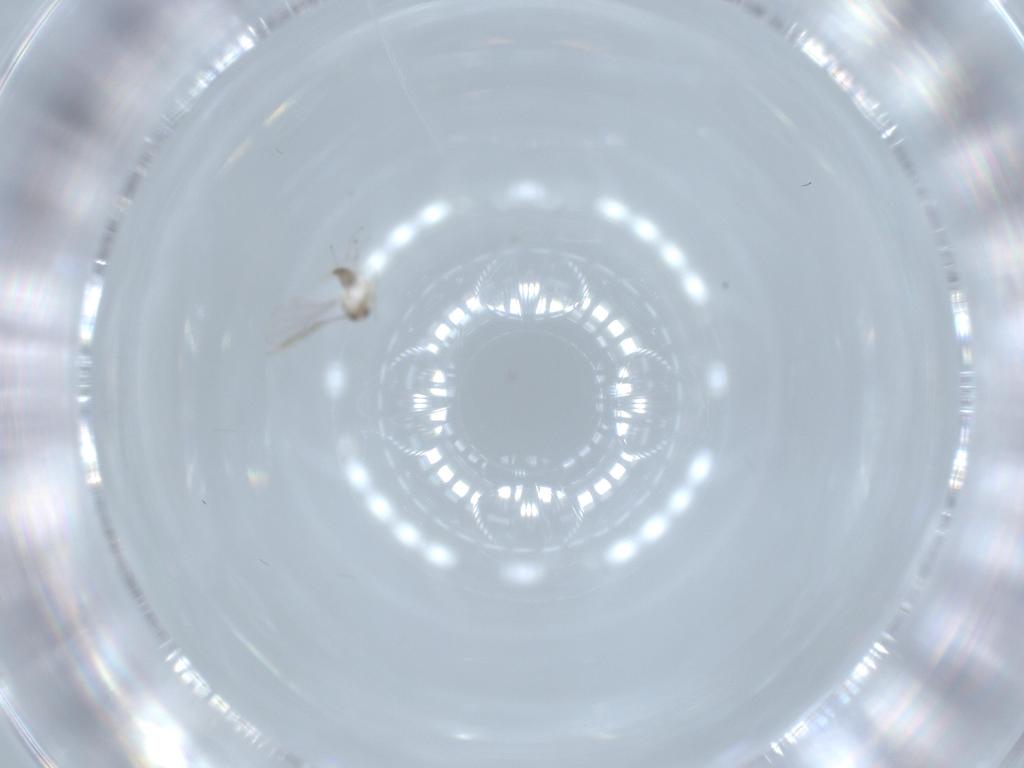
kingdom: Animalia
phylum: Arthropoda
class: Insecta
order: Diptera
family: Cecidomyiidae
